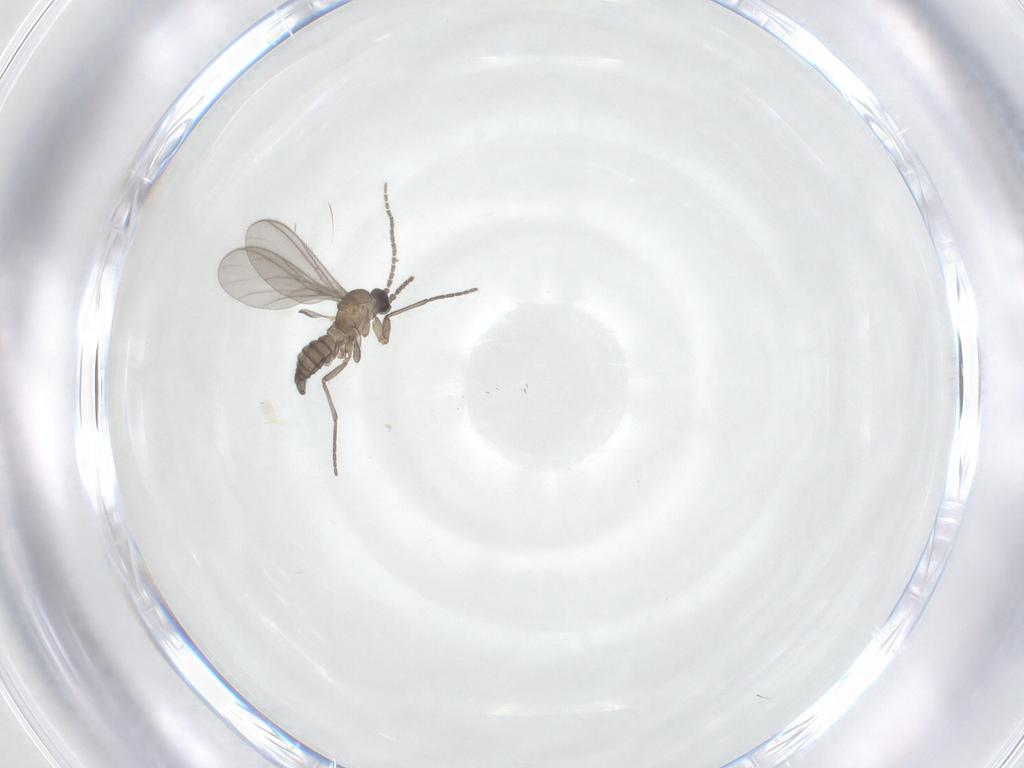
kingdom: Animalia
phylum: Arthropoda
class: Insecta
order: Diptera
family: Sciaridae
